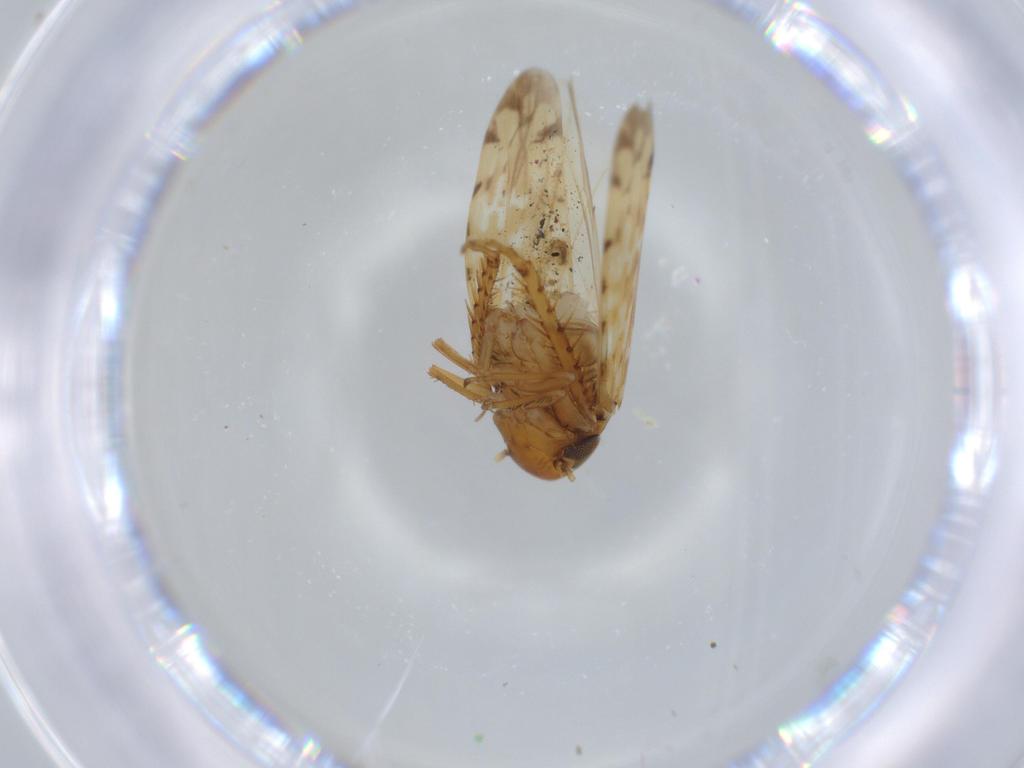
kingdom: Animalia
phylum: Arthropoda
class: Insecta
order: Hemiptera
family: Cicadellidae
